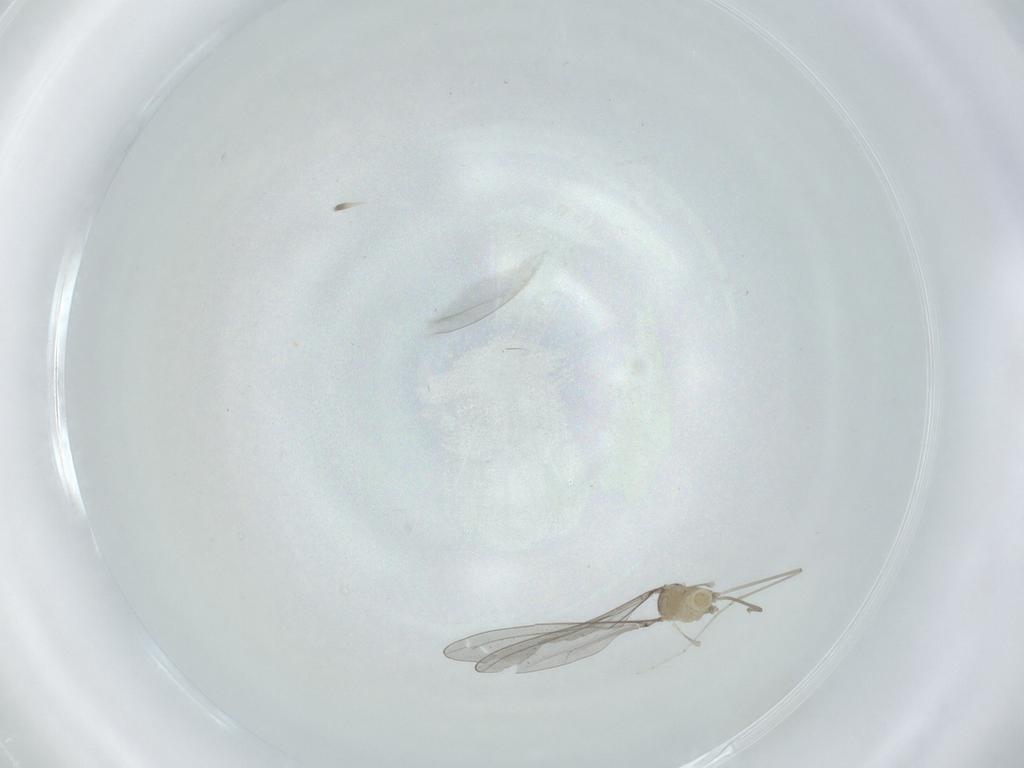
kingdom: Animalia
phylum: Arthropoda
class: Insecta
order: Diptera
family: Cecidomyiidae
